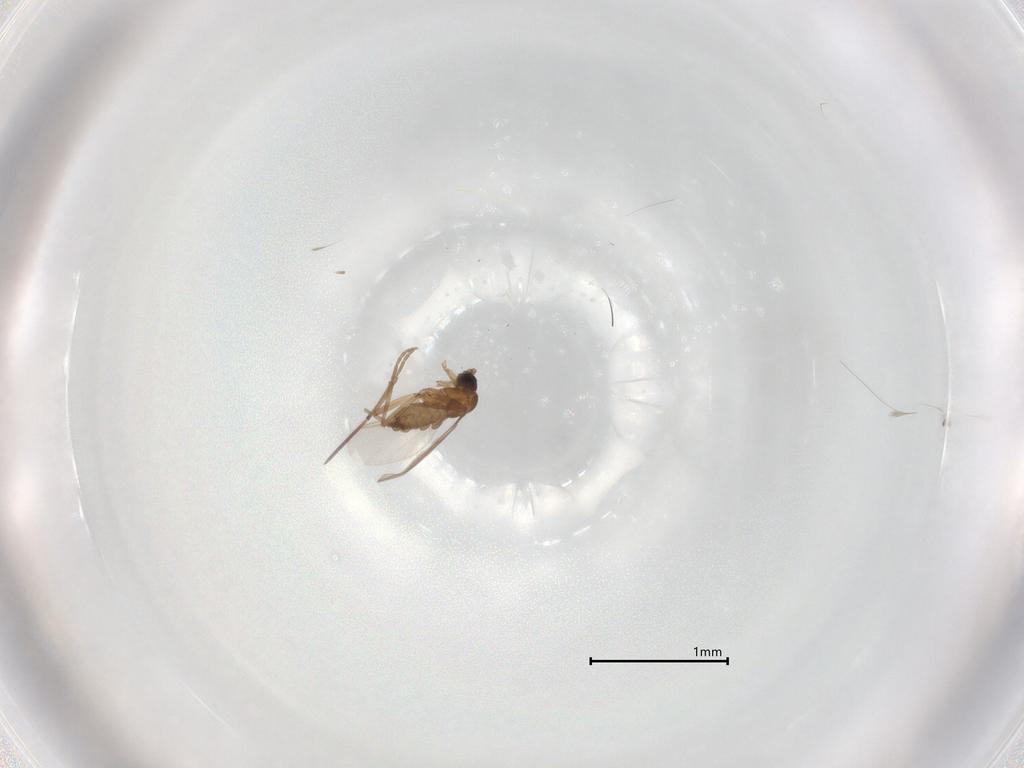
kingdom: Animalia
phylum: Arthropoda
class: Insecta
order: Diptera
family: Sciaridae
